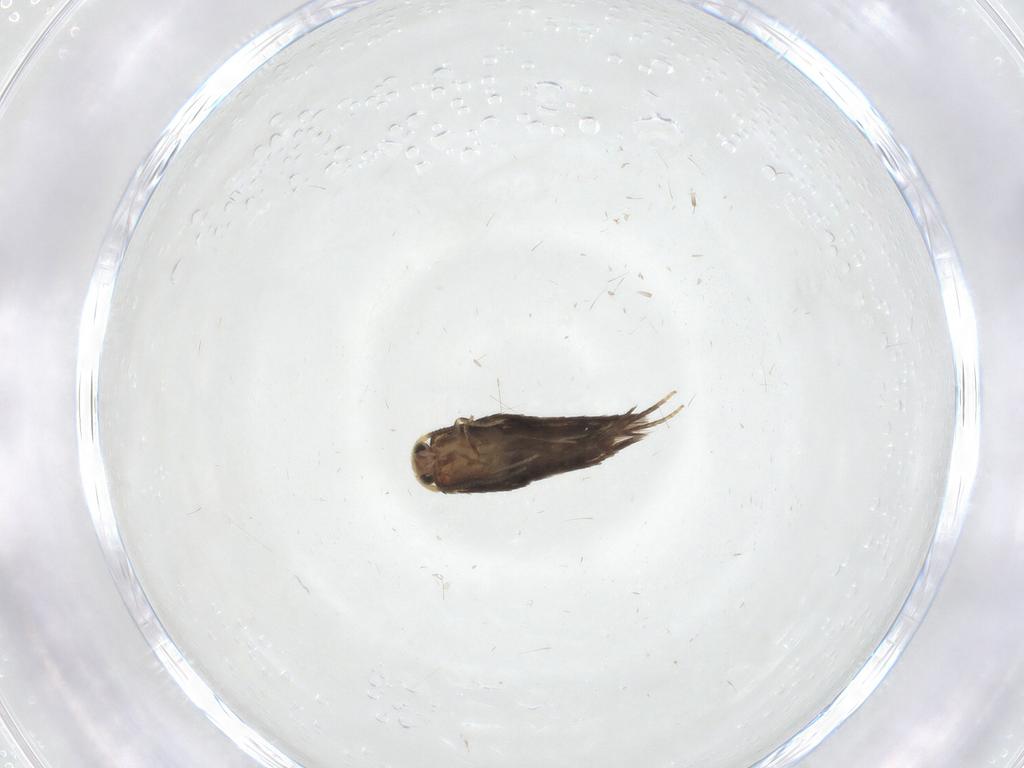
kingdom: Animalia
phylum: Arthropoda
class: Insecta
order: Lepidoptera
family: Nepticulidae
